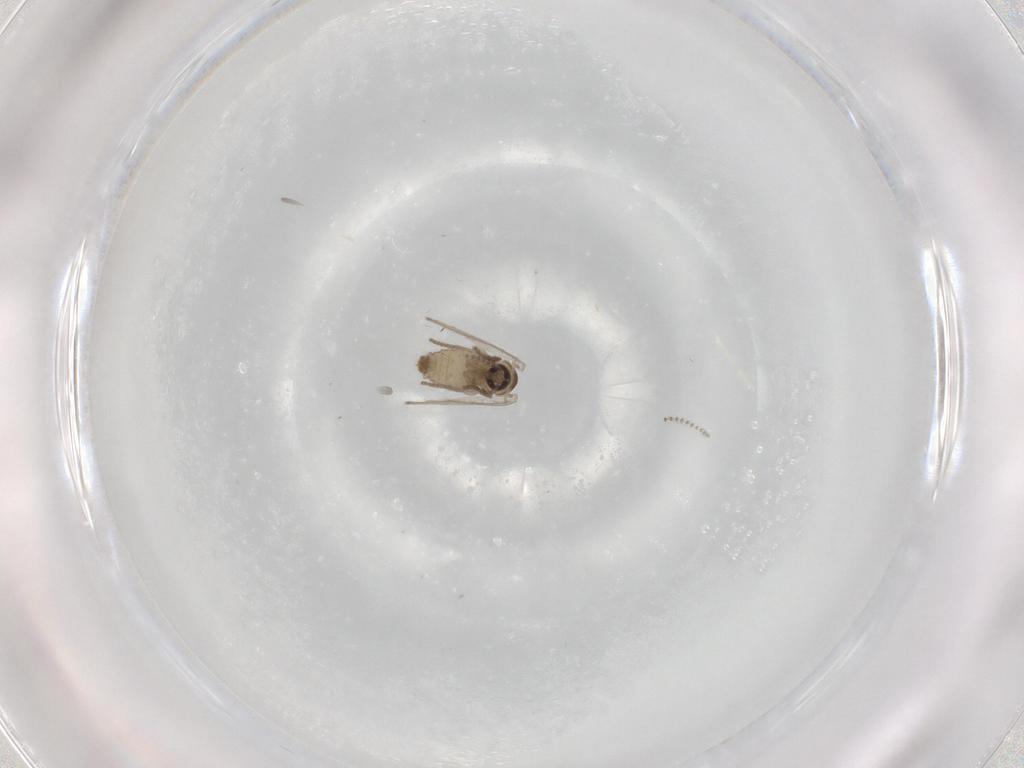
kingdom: Animalia
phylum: Arthropoda
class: Insecta
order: Diptera
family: Psychodidae
